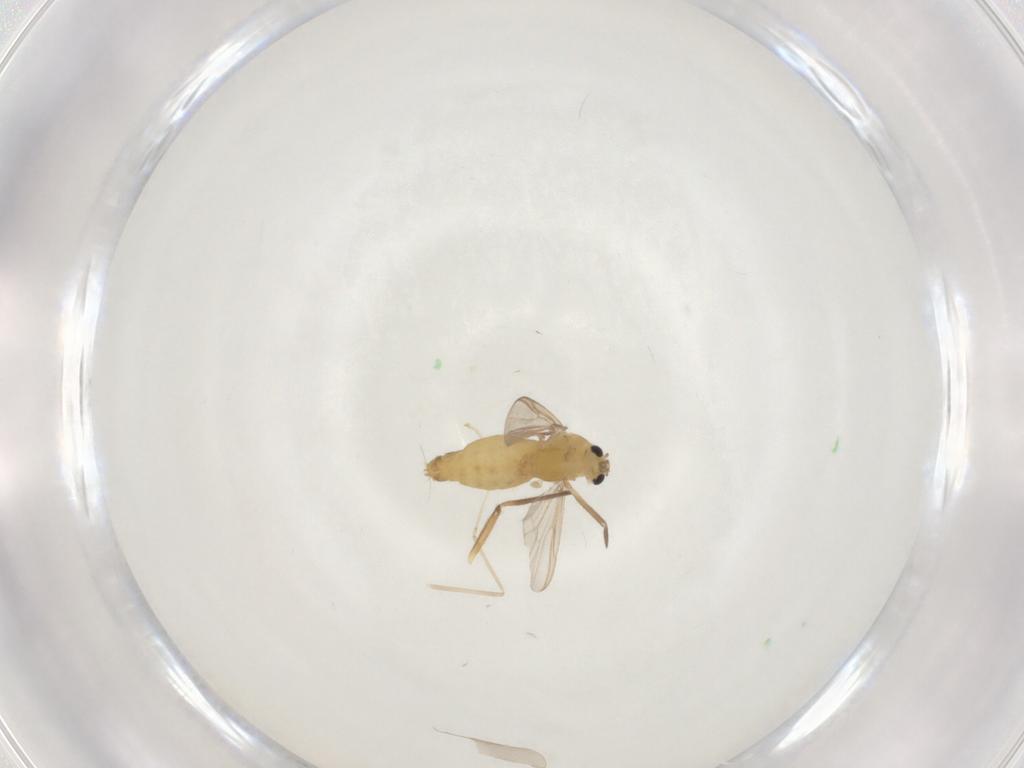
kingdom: Animalia
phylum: Arthropoda
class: Insecta
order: Diptera
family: Chironomidae
